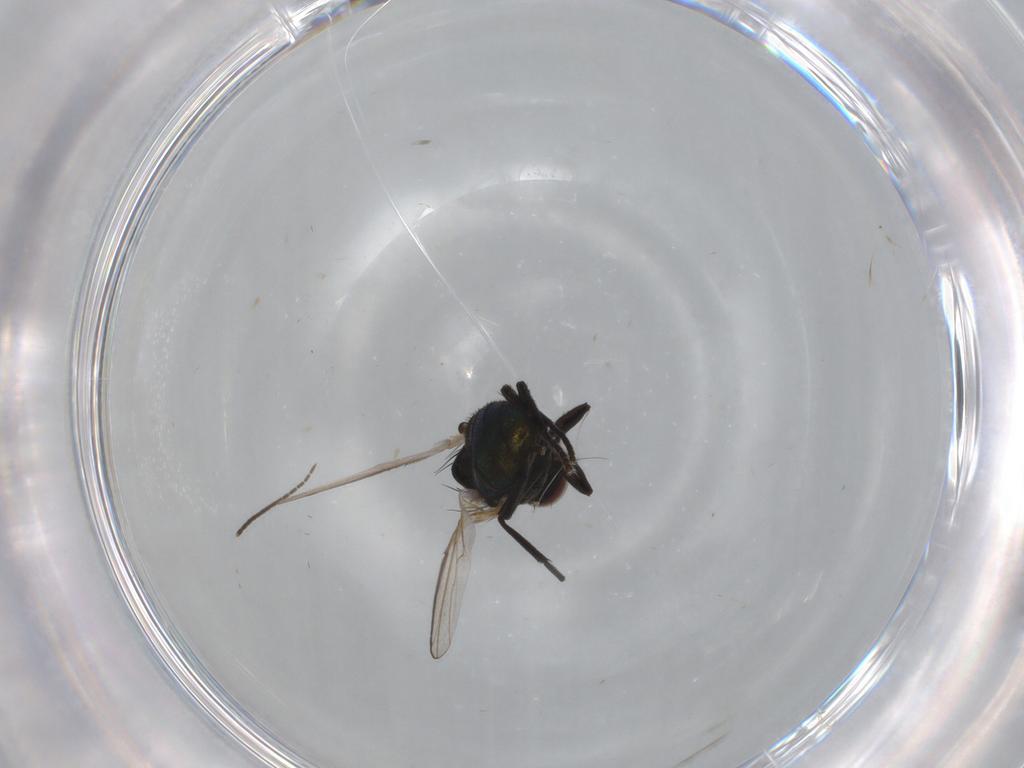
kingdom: Animalia
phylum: Arthropoda
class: Insecta
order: Diptera
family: Agromyzidae
